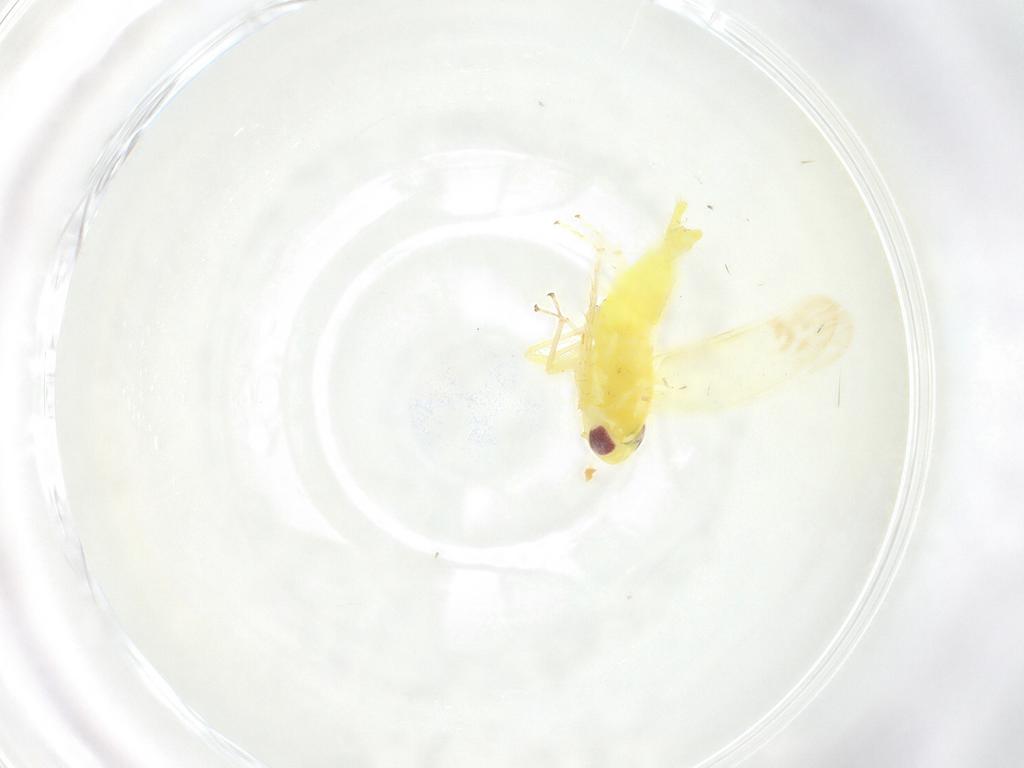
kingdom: Animalia
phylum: Arthropoda
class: Insecta
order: Hemiptera
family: Cicadellidae
